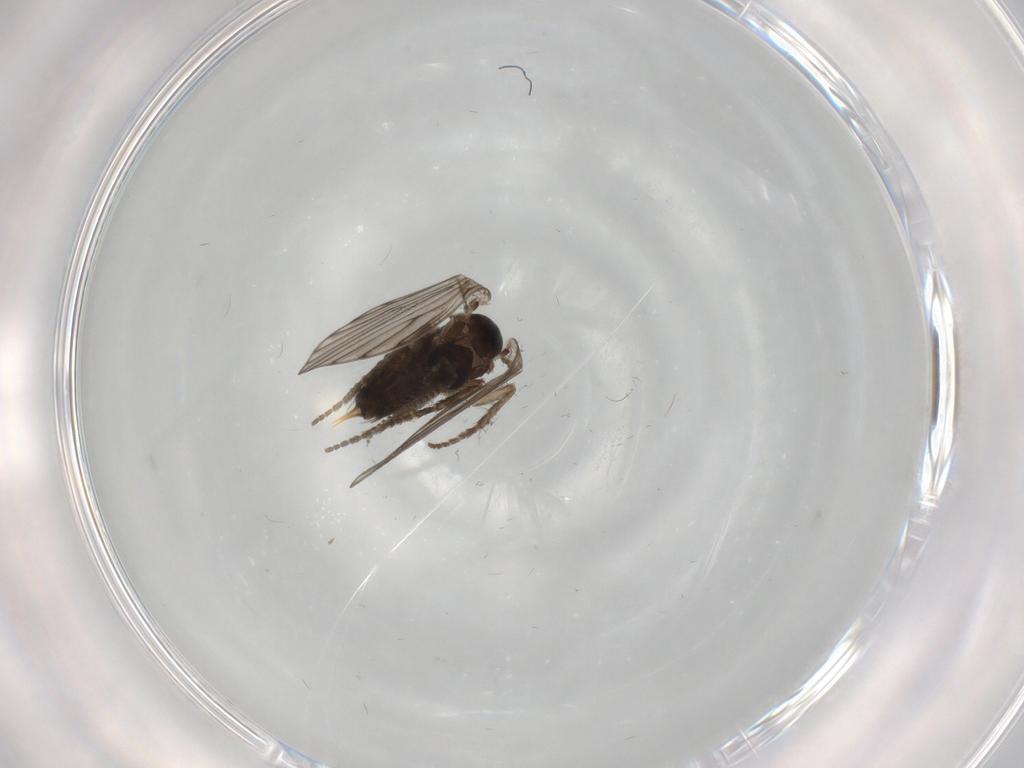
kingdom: Animalia
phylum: Arthropoda
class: Insecta
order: Diptera
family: Psychodidae
